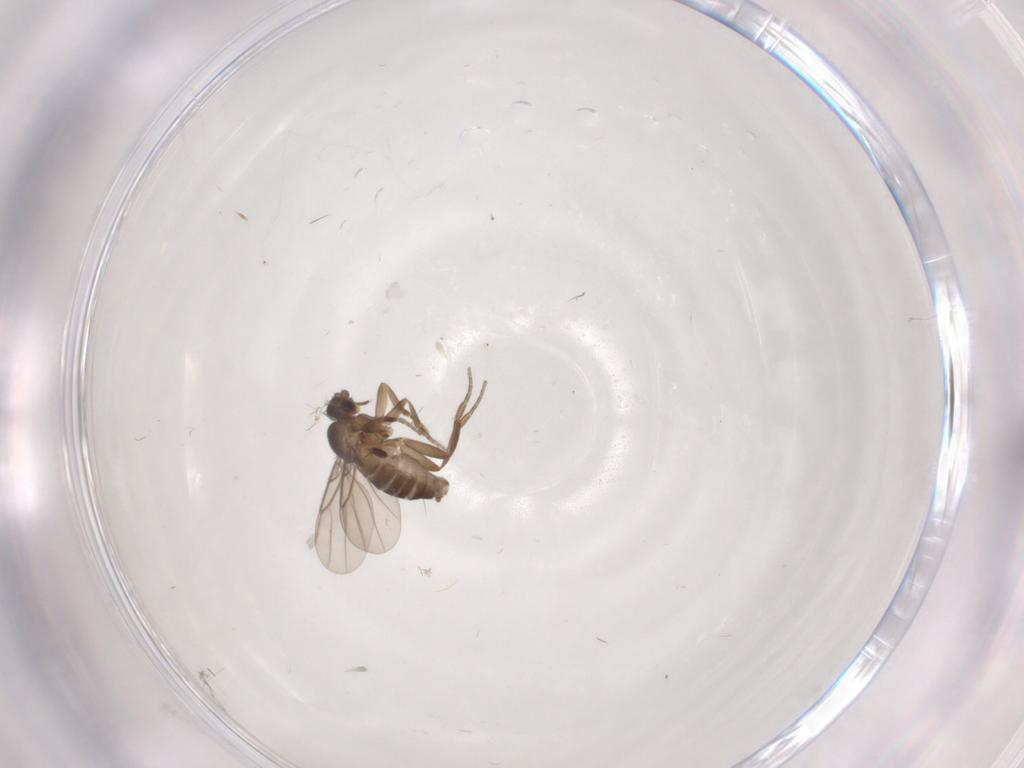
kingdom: Animalia
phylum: Arthropoda
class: Insecta
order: Diptera
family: Phoridae
